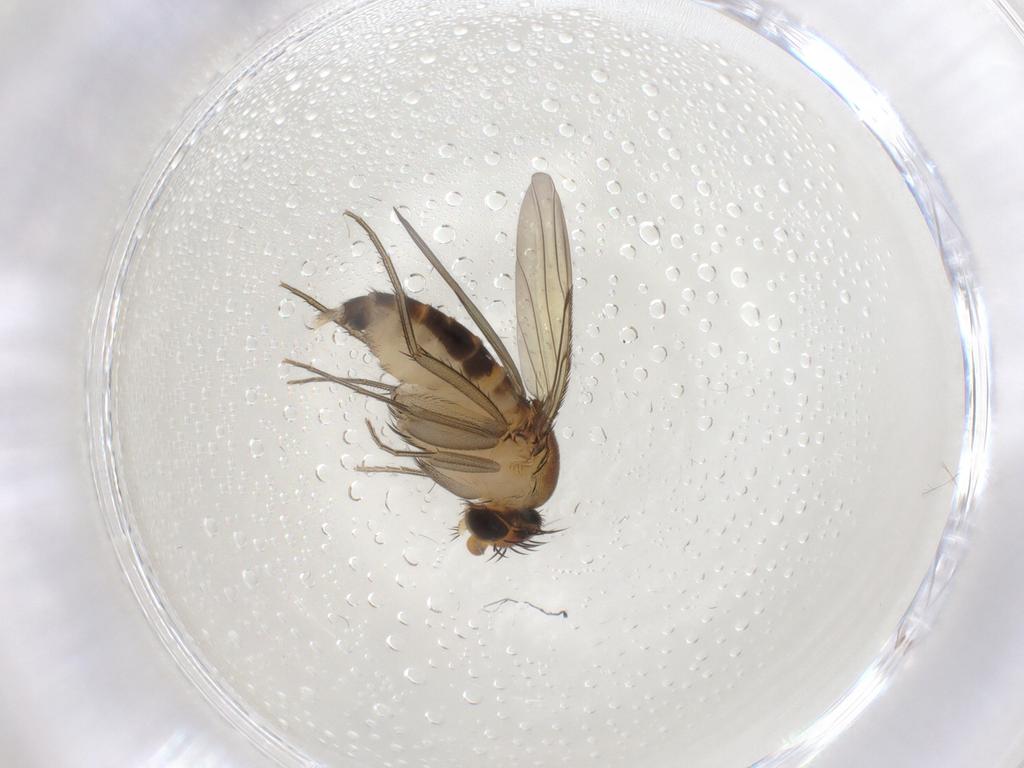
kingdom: Animalia
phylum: Arthropoda
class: Insecta
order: Diptera
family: Phoridae
